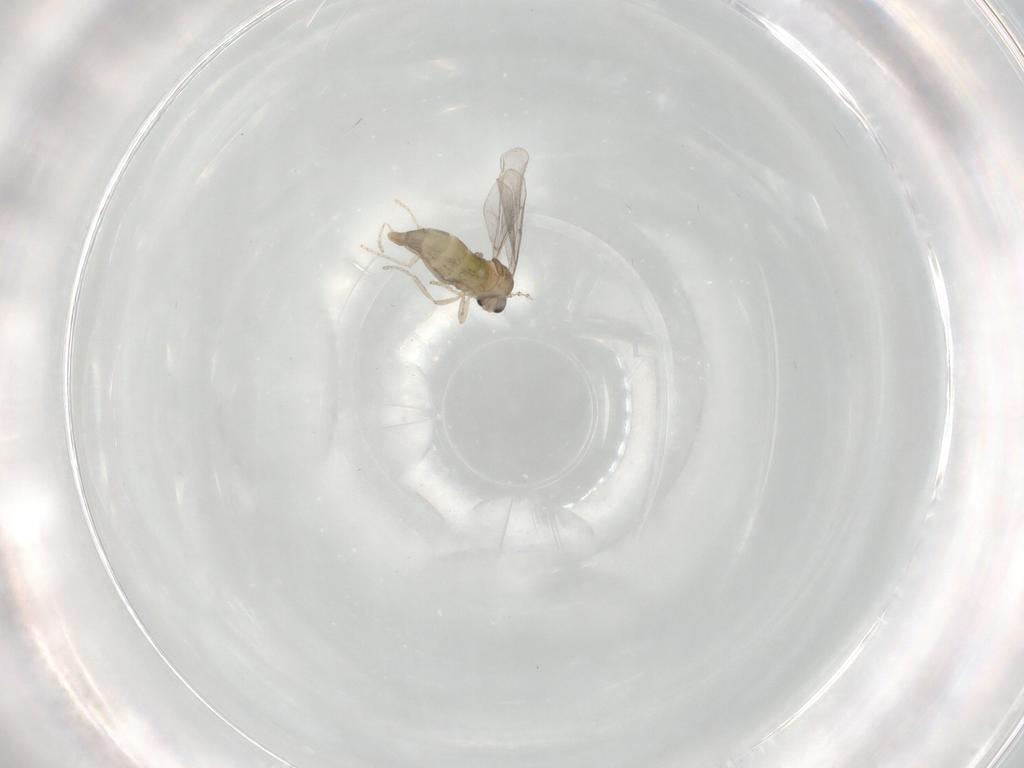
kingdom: Animalia
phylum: Arthropoda
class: Insecta
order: Diptera
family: Cecidomyiidae
